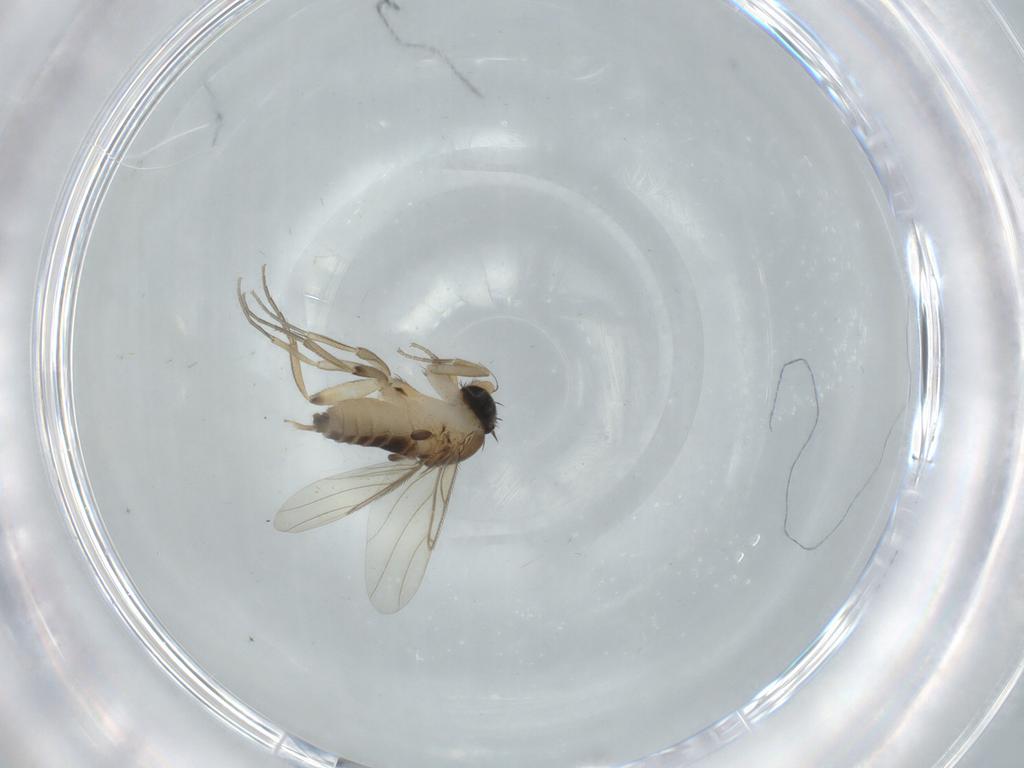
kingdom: Animalia
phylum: Arthropoda
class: Insecta
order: Diptera
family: Phoridae
